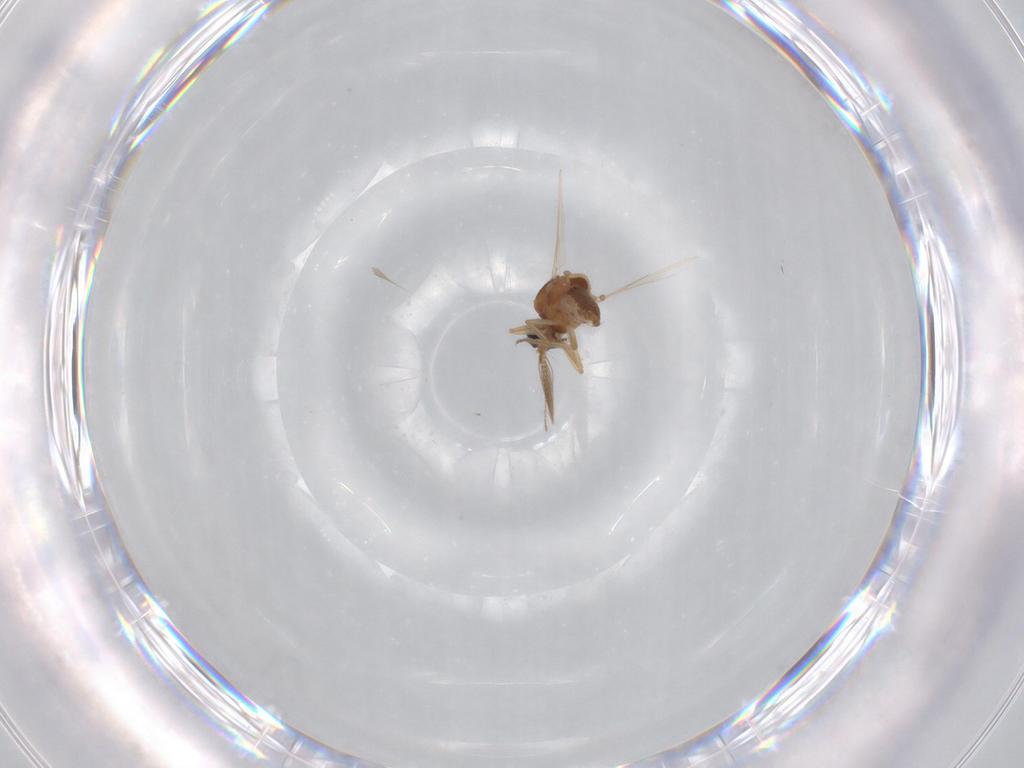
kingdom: Animalia
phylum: Arthropoda
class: Insecta
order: Diptera
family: Ceratopogonidae
